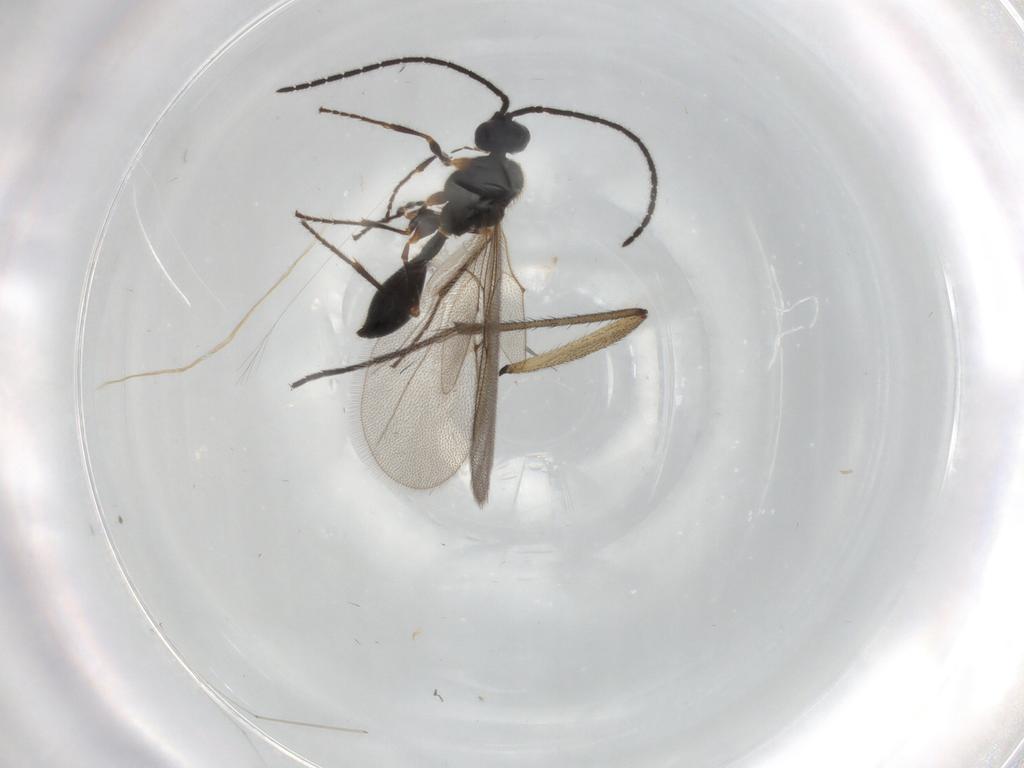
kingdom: Animalia
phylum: Arthropoda
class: Insecta
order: Hymenoptera
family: Diapriidae
